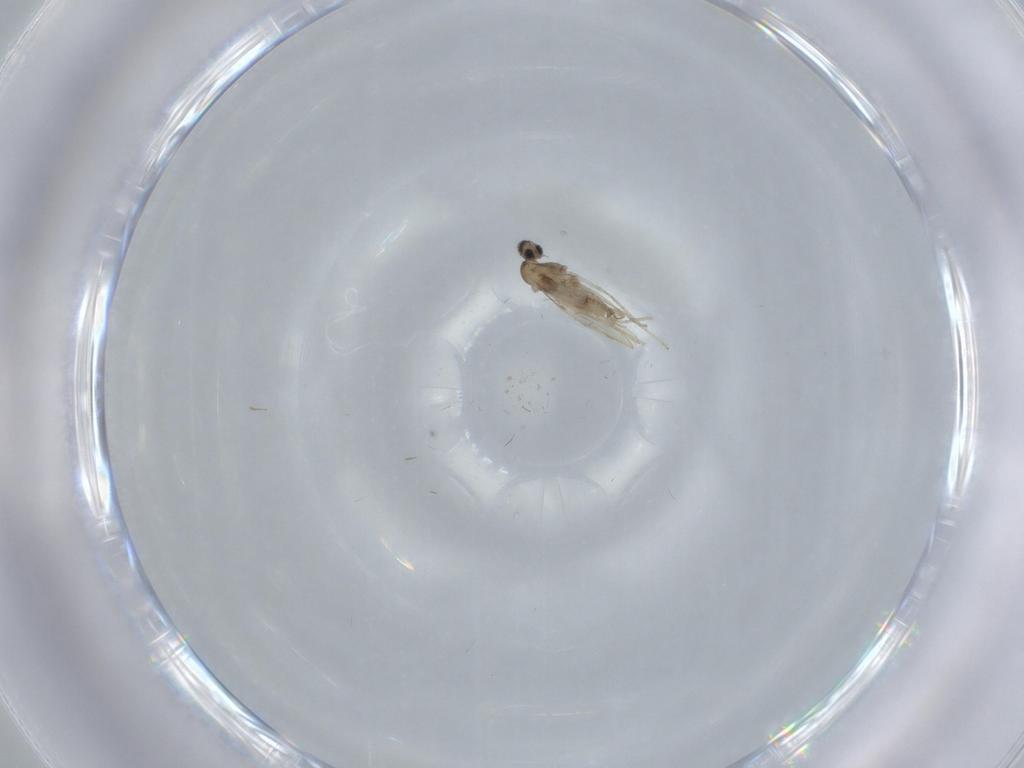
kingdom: Animalia
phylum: Arthropoda
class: Insecta
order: Diptera
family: Cecidomyiidae
